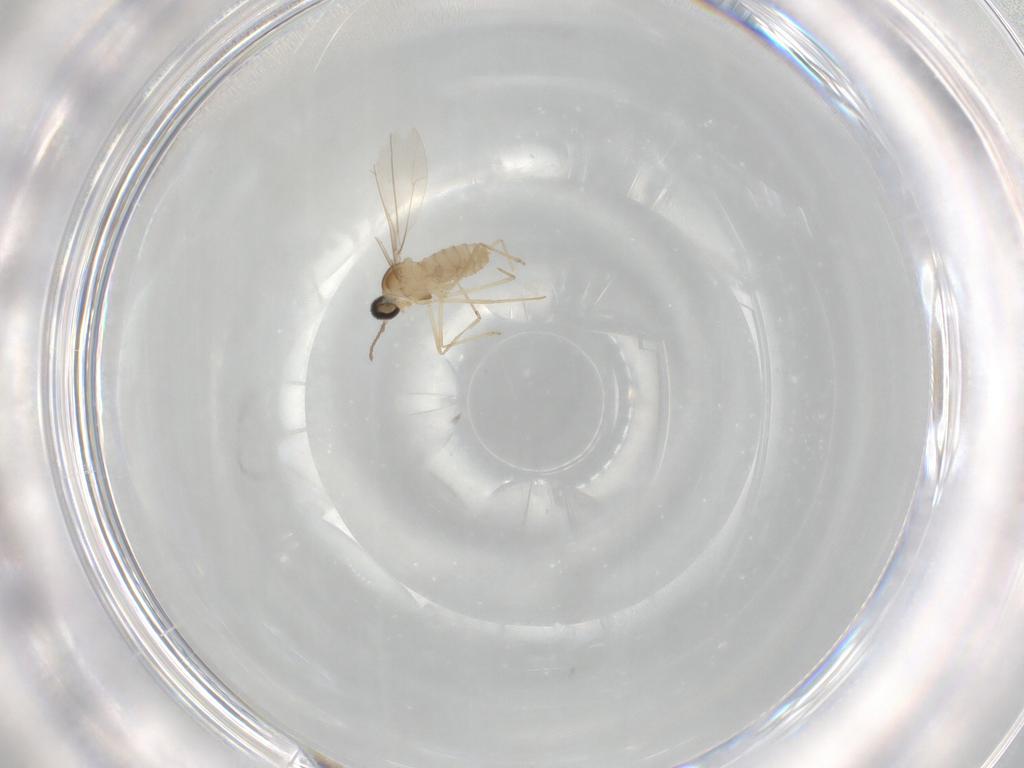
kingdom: Animalia
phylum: Arthropoda
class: Insecta
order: Diptera
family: Cecidomyiidae
